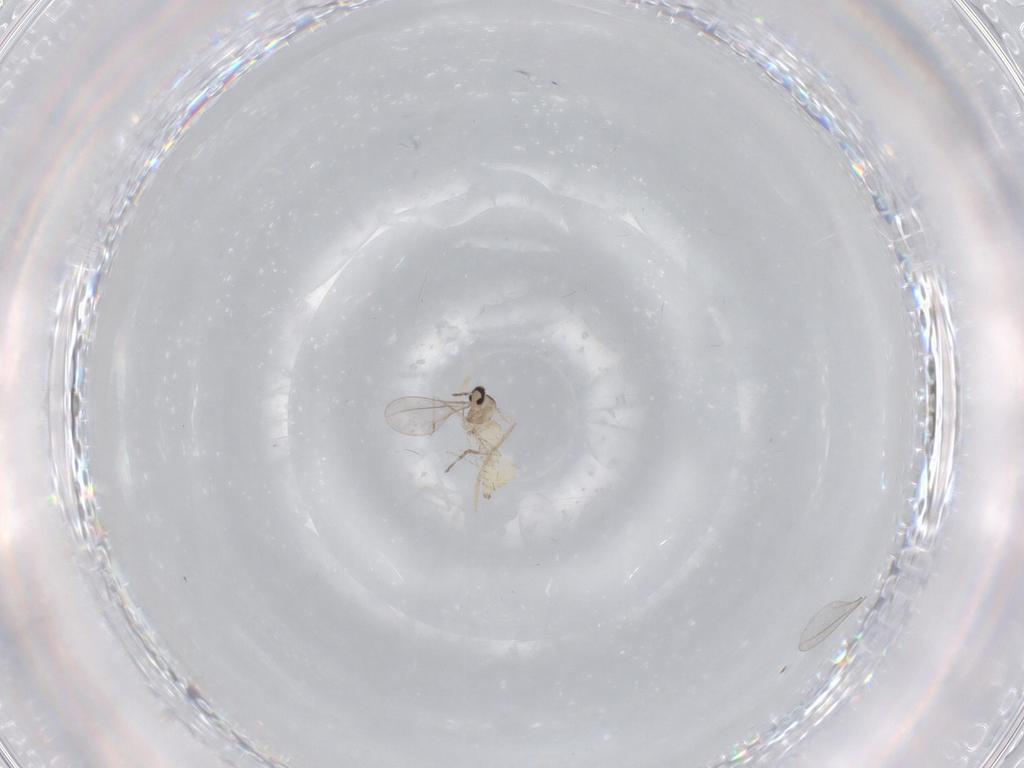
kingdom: Animalia
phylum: Arthropoda
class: Insecta
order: Diptera
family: Cecidomyiidae
